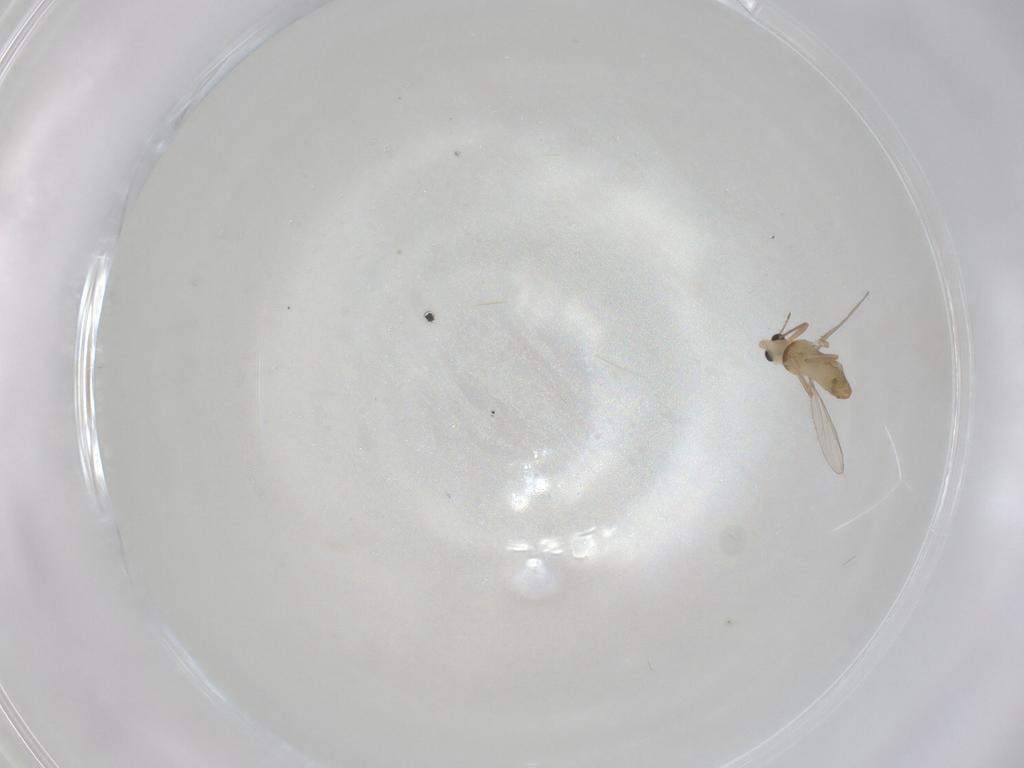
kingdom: Animalia
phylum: Arthropoda
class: Insecta
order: Diptera
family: Chironomidae
